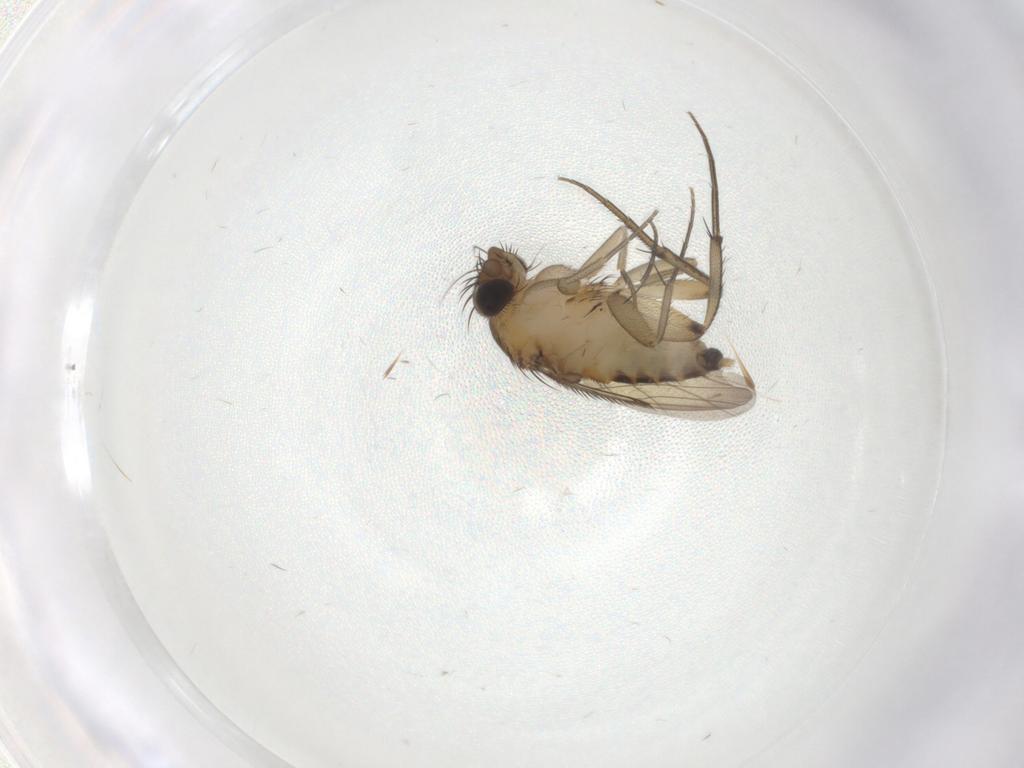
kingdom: Animalia
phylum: Arthropoda
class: Insecta
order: Diptera
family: Phoridae
